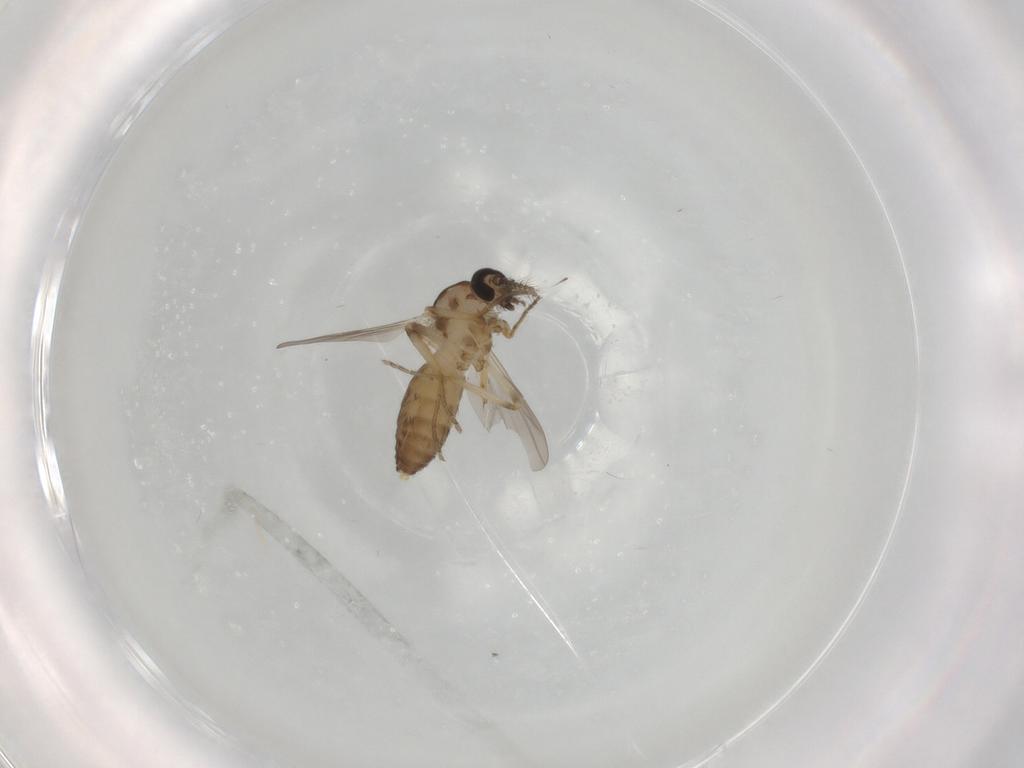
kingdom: Animalia
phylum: Arthropoda
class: Insecta
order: Diptera
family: Ceratopogonidae
